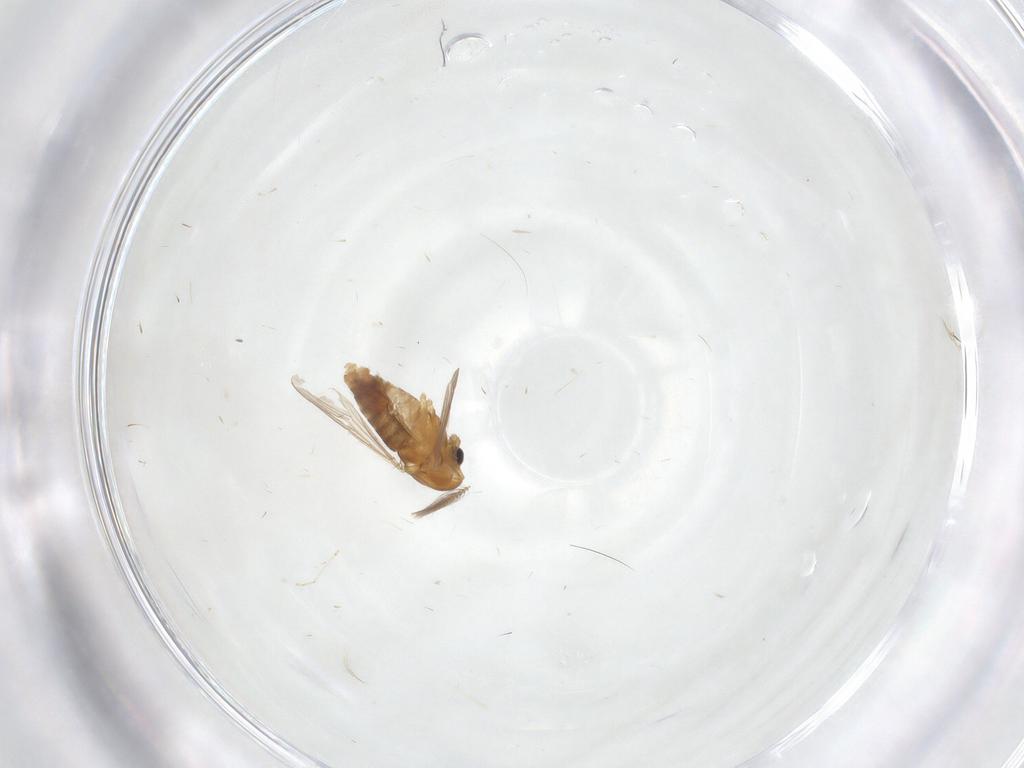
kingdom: Animalia
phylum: Arthropoda
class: Insecta
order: Diptera
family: Chironomidae
